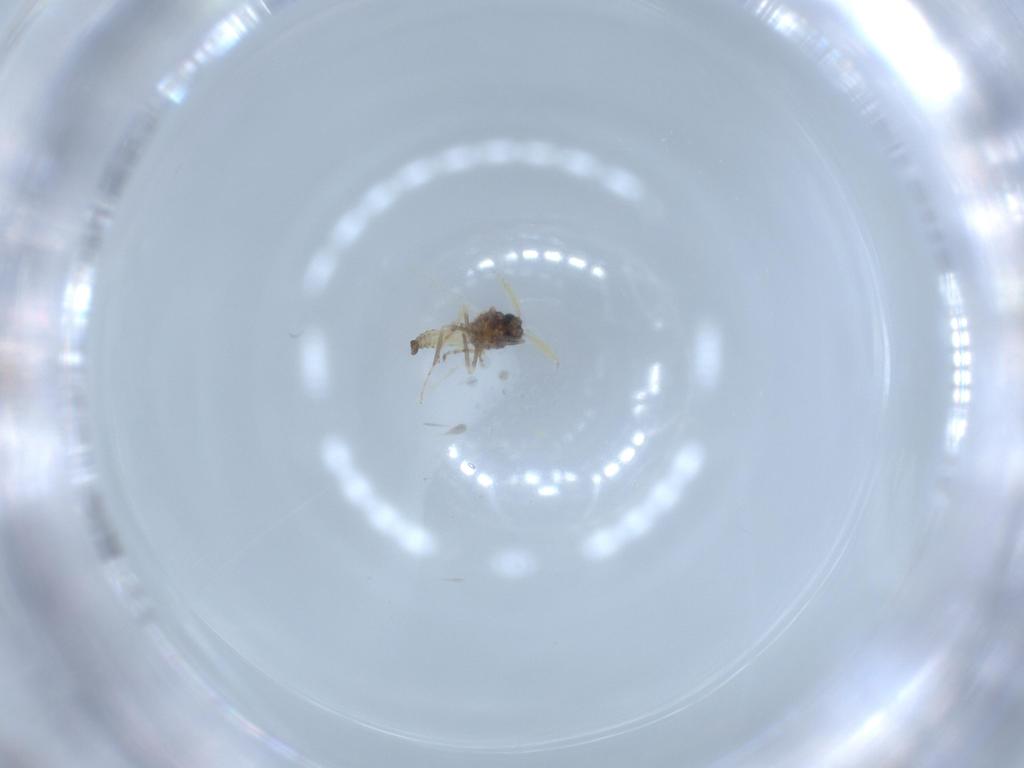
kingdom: Animalia
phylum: Arthropoda
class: Insecta
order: Diptera
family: Ceratopogonidae
